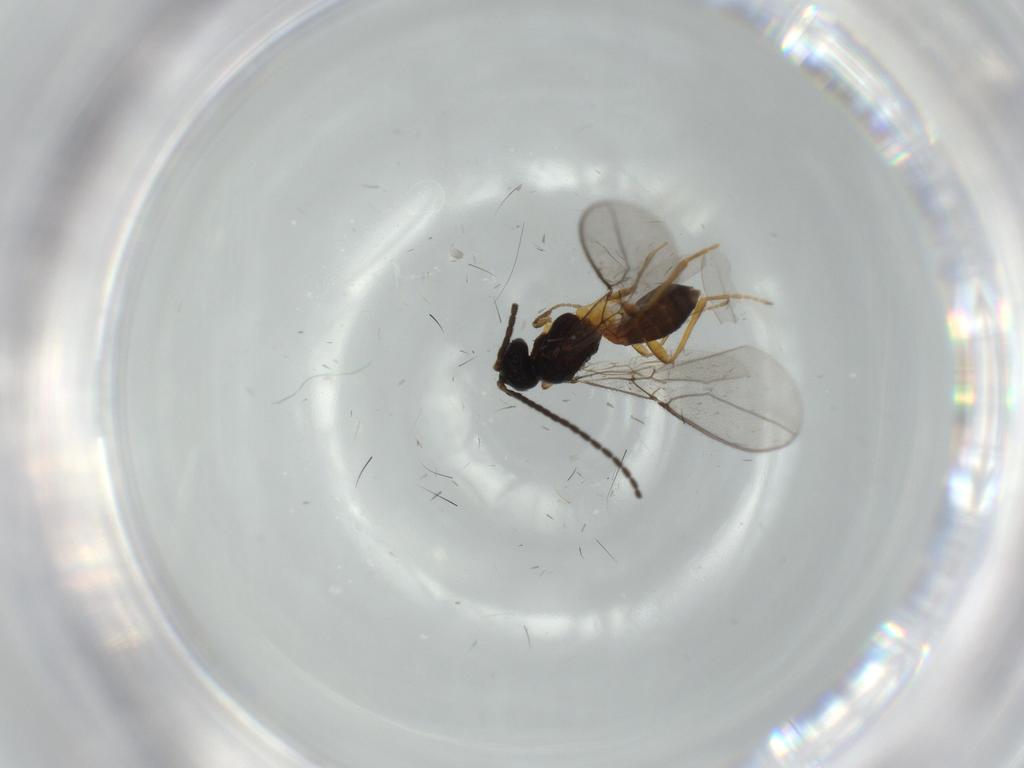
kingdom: Animalia
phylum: Arthropoda
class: Insecta
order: Hymenoptera
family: Braconidae
